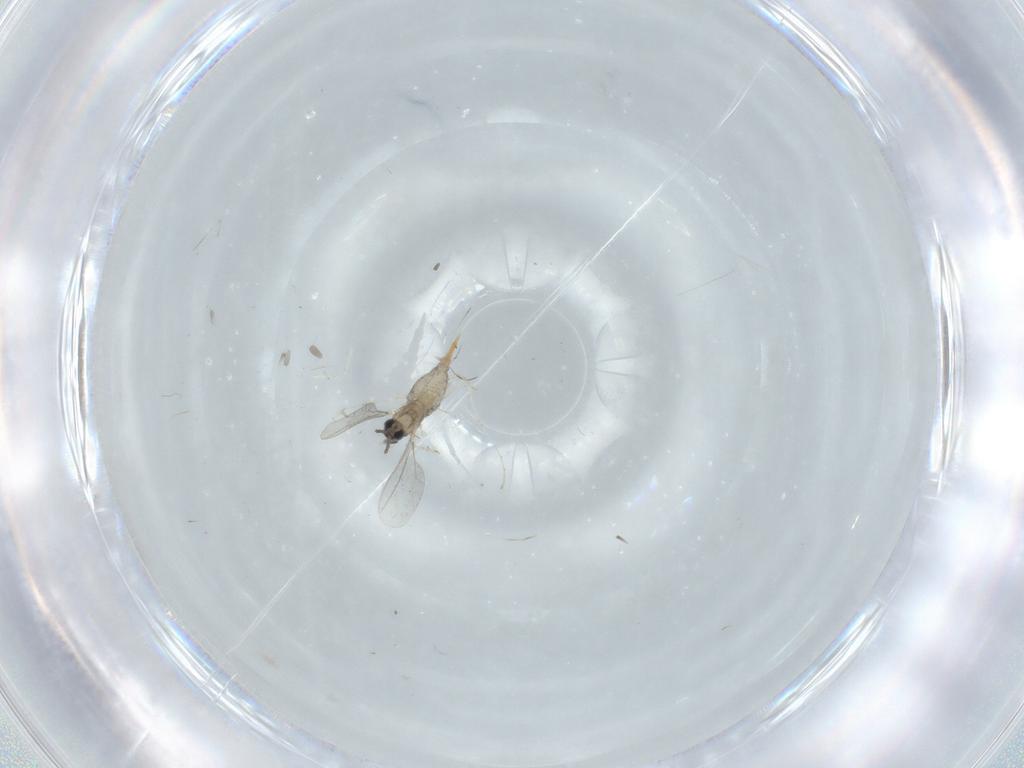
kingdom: Animalia
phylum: Arthropoda
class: Insecta
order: Diptera
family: Cecidomyiidae
